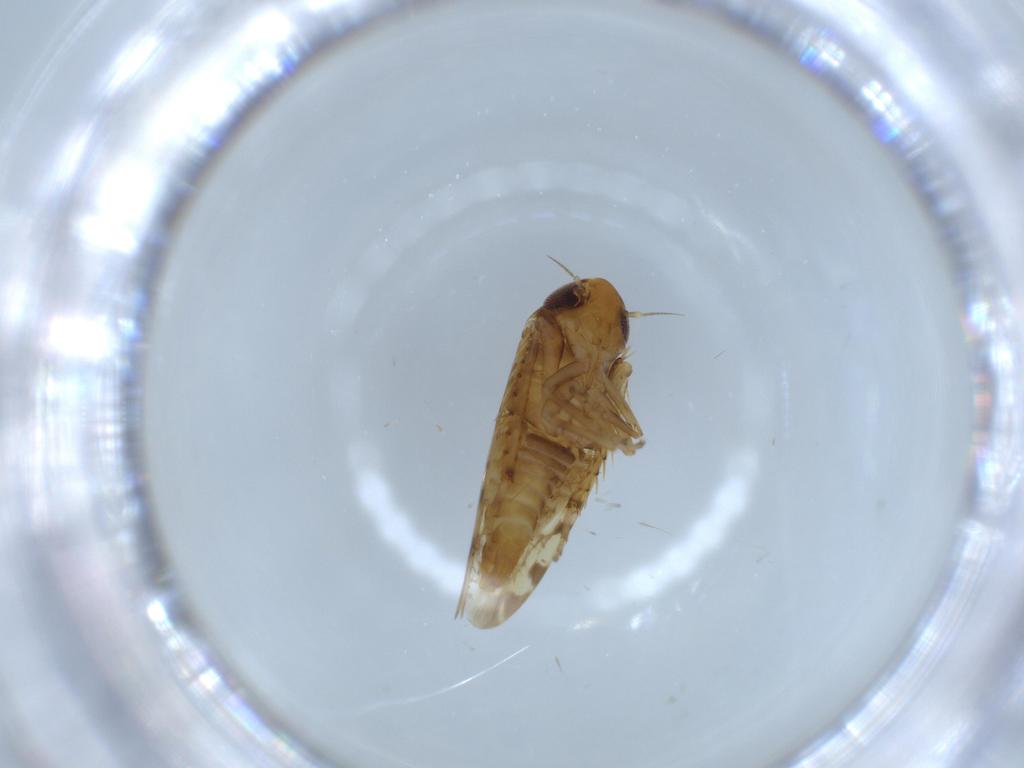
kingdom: Animalia
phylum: Arthropoda
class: Insecta
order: Hemiptera
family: Cicadellidae
